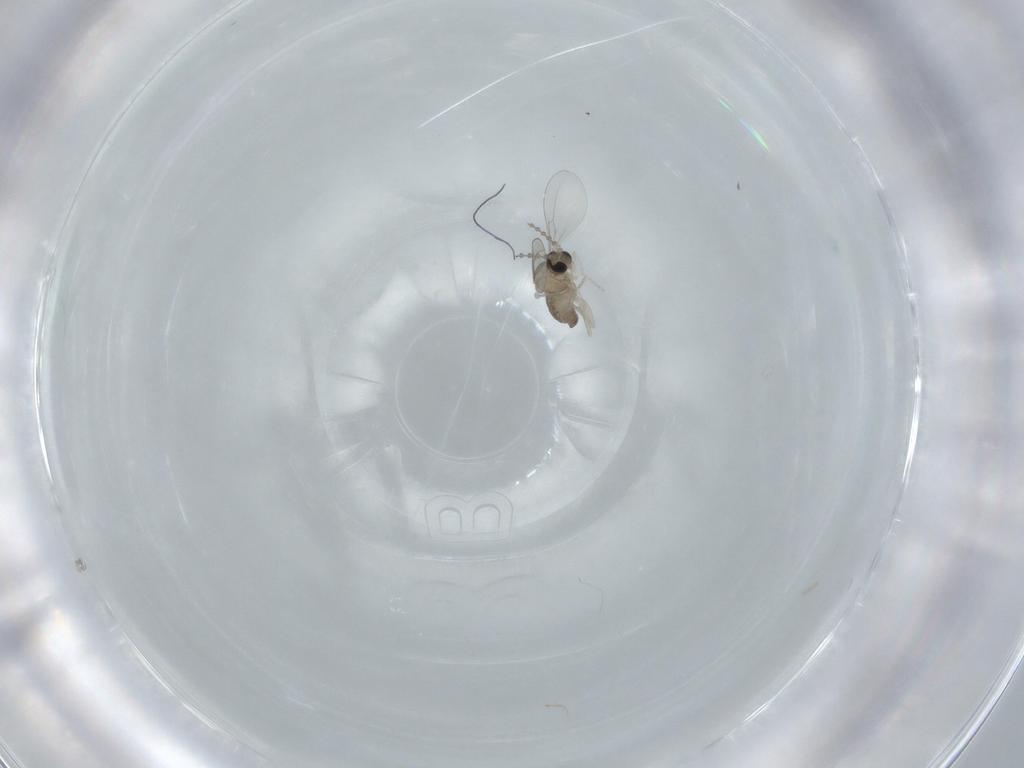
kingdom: Animalia
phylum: Arthropoda
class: Insecta
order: Diptera
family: Cecidomyiidae
